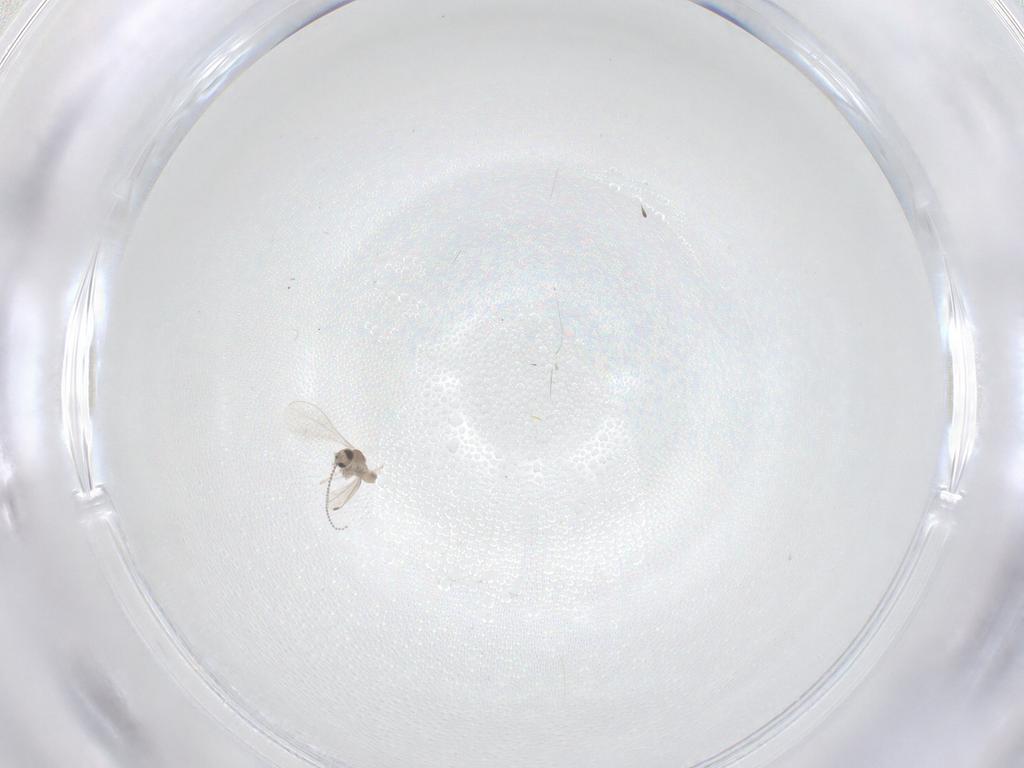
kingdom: Animalia
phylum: Arthropoda
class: Insecta
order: Diptera
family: Cecidomyiidae
